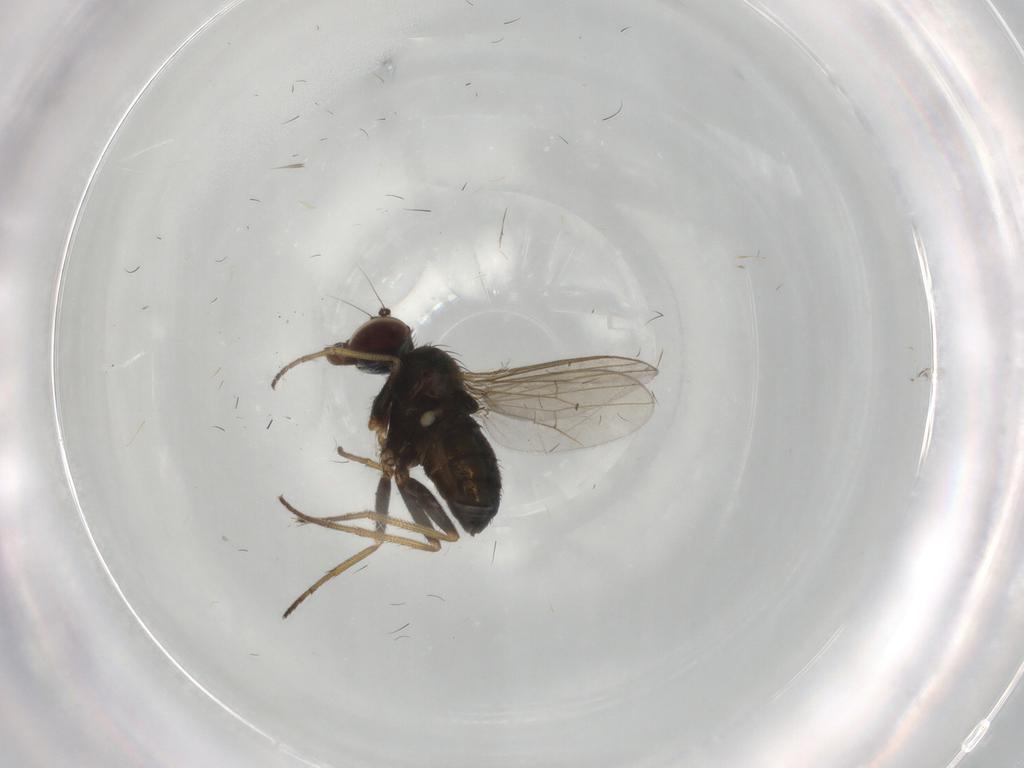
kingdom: Animalia
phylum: Arthropoda
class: Insecta
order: Diptera
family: Dolichopodidae
